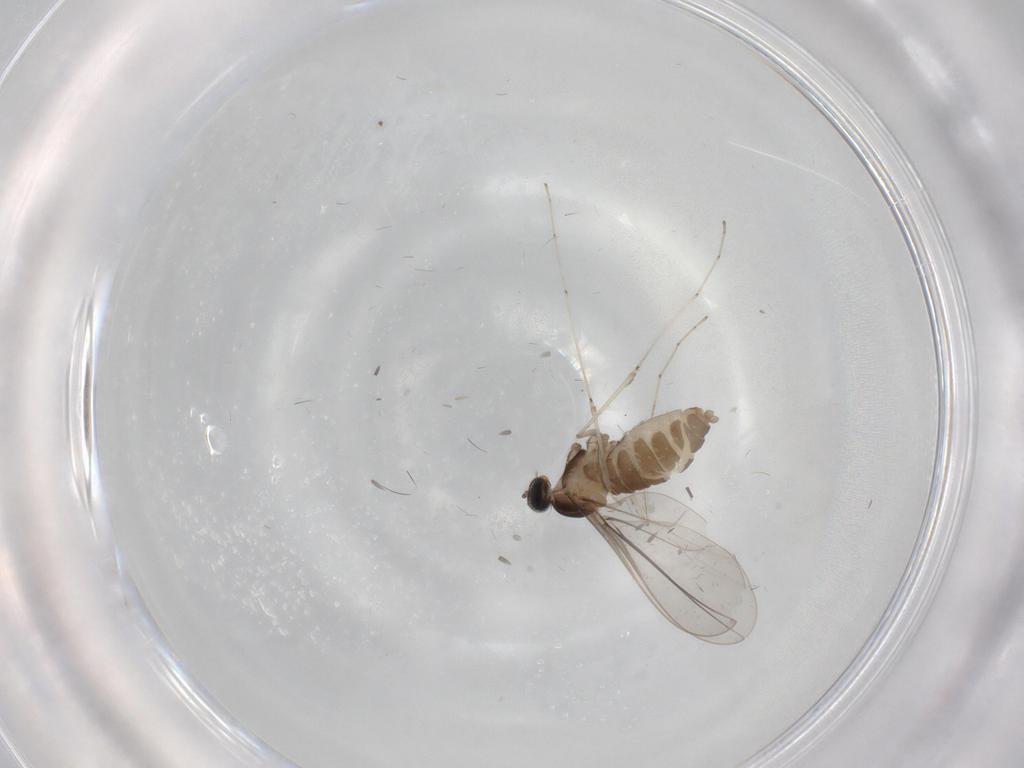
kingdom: Animalia
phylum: Arthropoda
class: Insecta
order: Diptera
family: Cecidomyiidae
